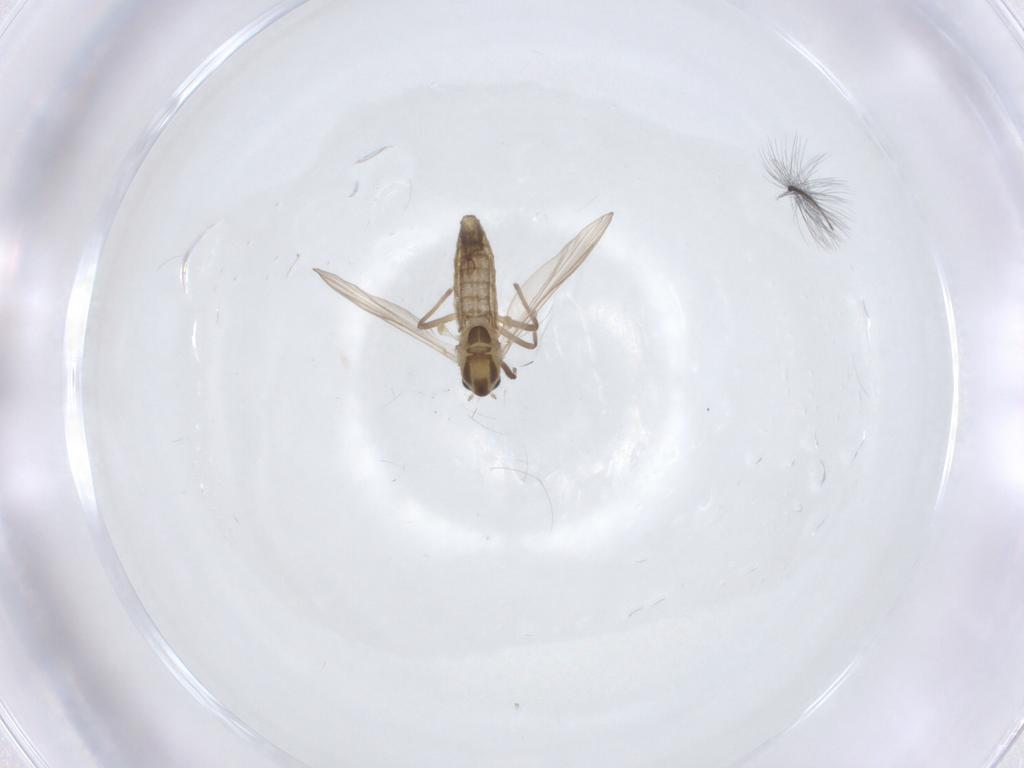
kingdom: Animalia
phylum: Arthropoda
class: Insecta
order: Diptera
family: Chironomidae
